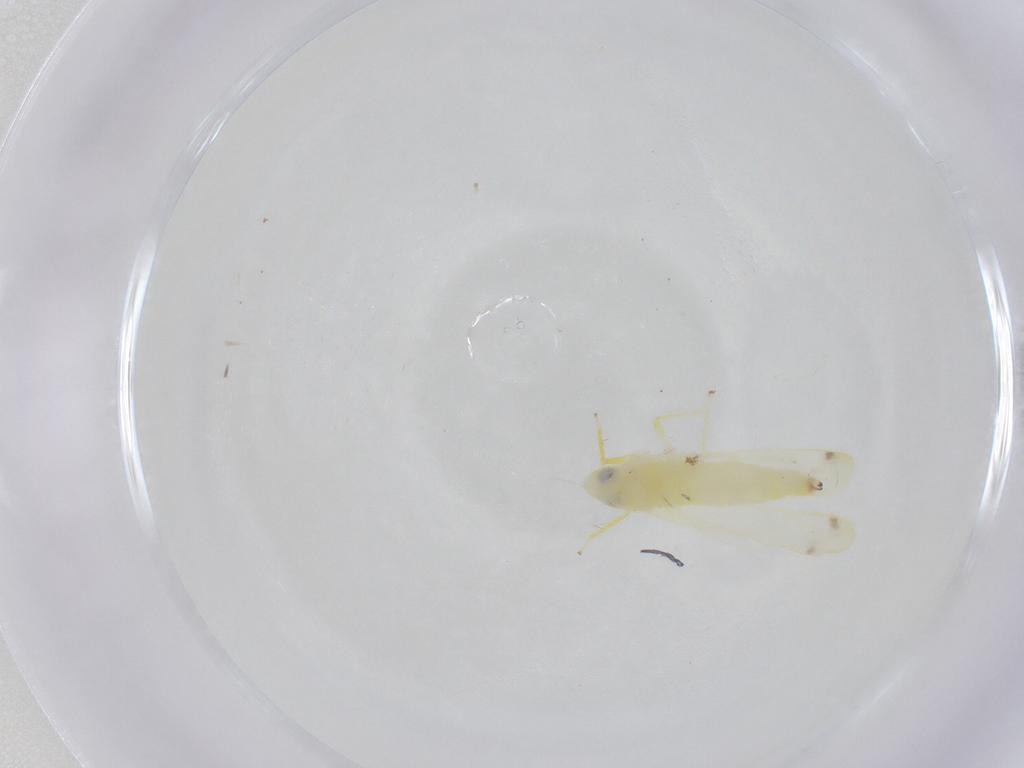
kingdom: Animalia
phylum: Arthropoda
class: Insecta
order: Hemiptera
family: Cicadellidae
